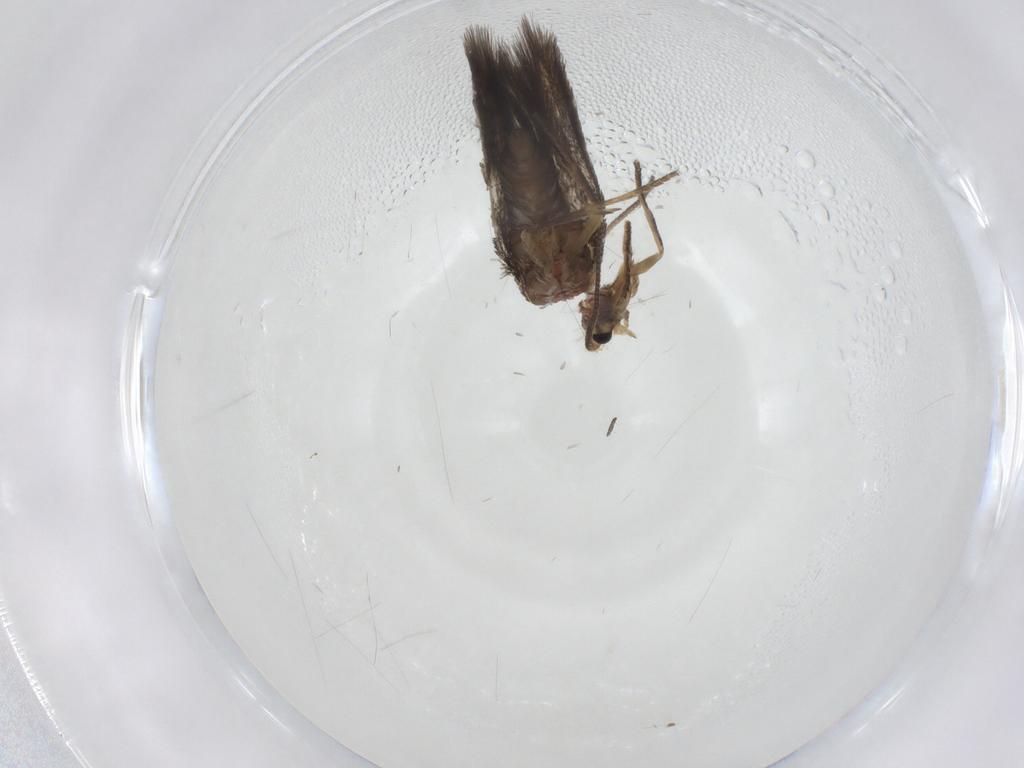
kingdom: Animalia
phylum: Arthropoda
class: Insecta
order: Lepidoptera
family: Nepticulidae
